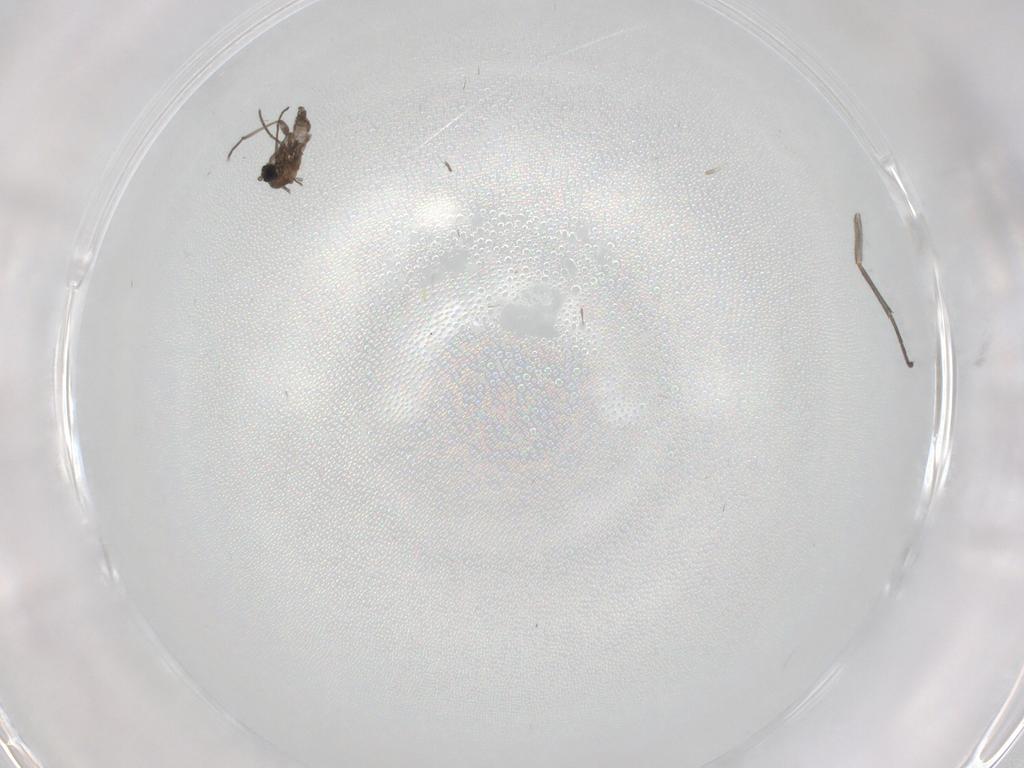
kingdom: Animalia
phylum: Arthropoda
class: Insecta
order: Diptera
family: Sciaridae
